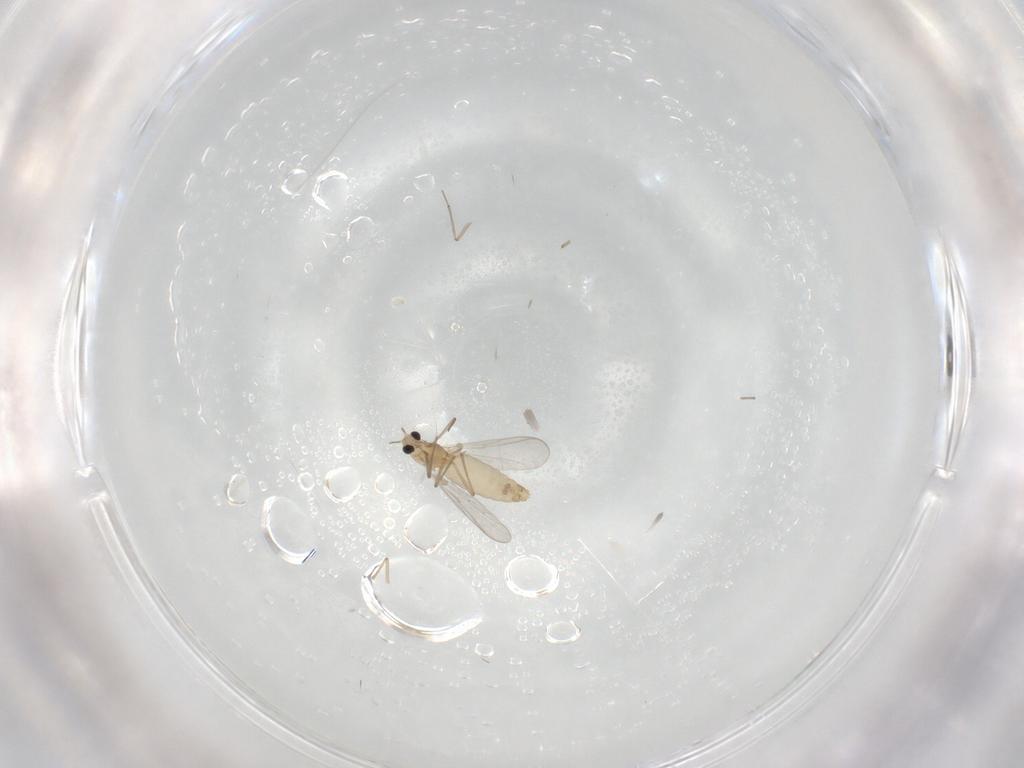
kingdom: Animalia
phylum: Arthropoda
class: Insecta
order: Diptera
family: Chironomidae
